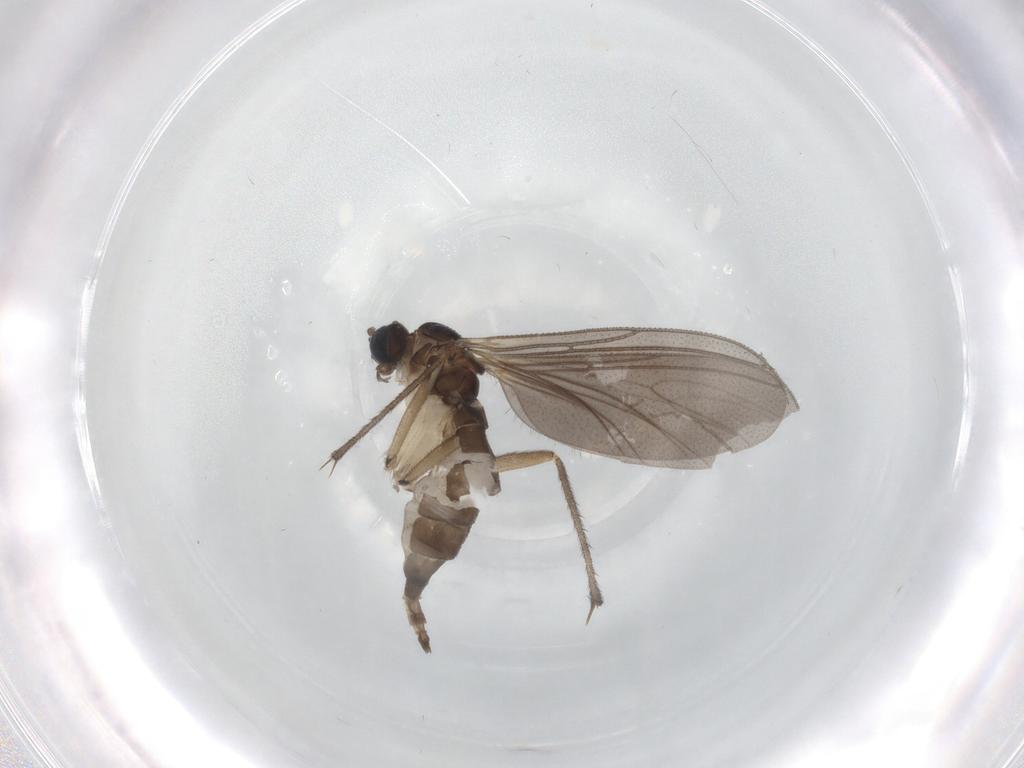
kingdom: Animalia
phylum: Arthropoda
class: Insecta
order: Diptera
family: Sciaridae
